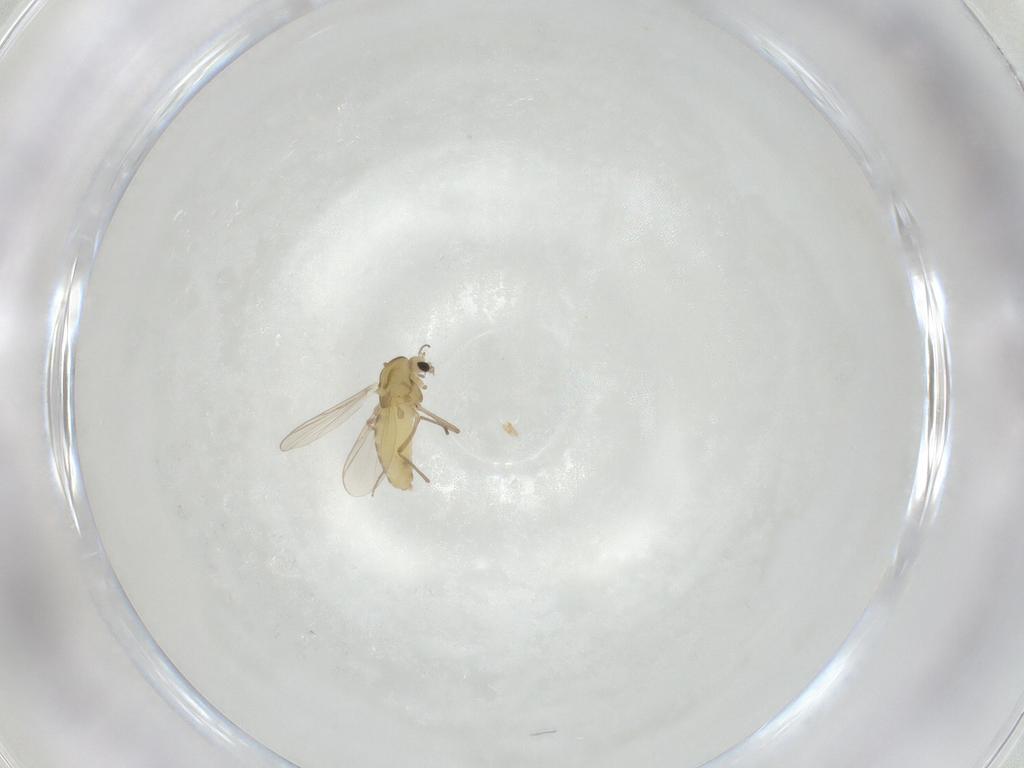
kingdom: Animalia
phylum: Arthropoda
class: Insecta
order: Diptera
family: Chironomidae
